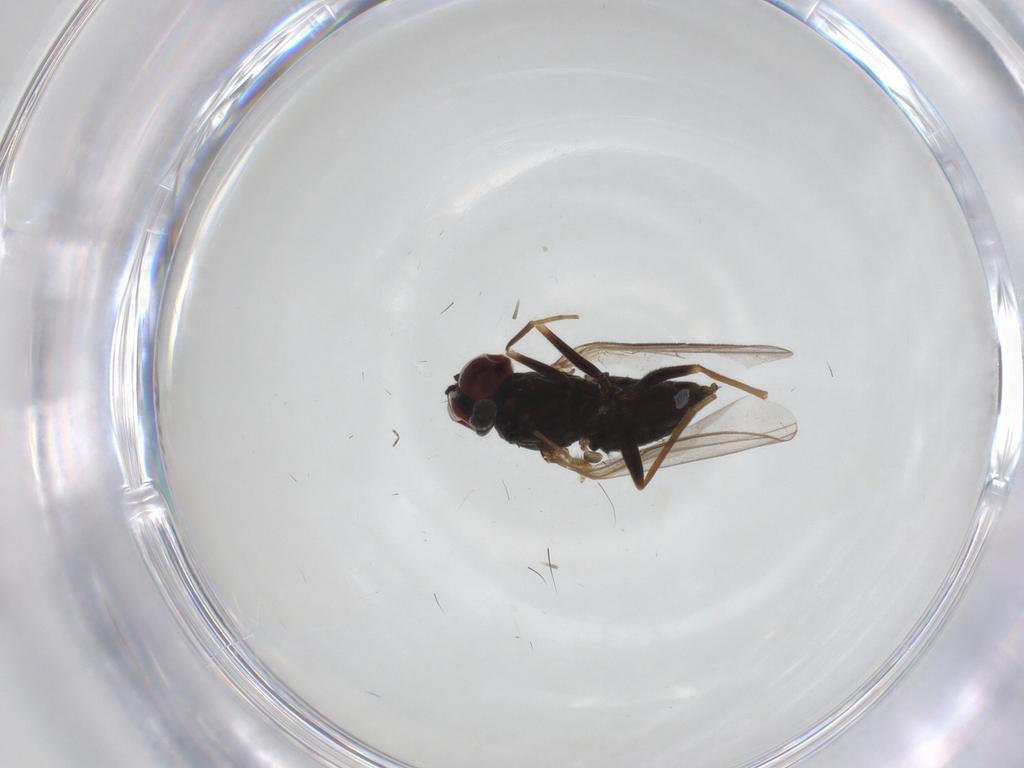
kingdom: Animalia
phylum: Arthropoda
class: Insecta
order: Diptera
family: Dolichopodidae
